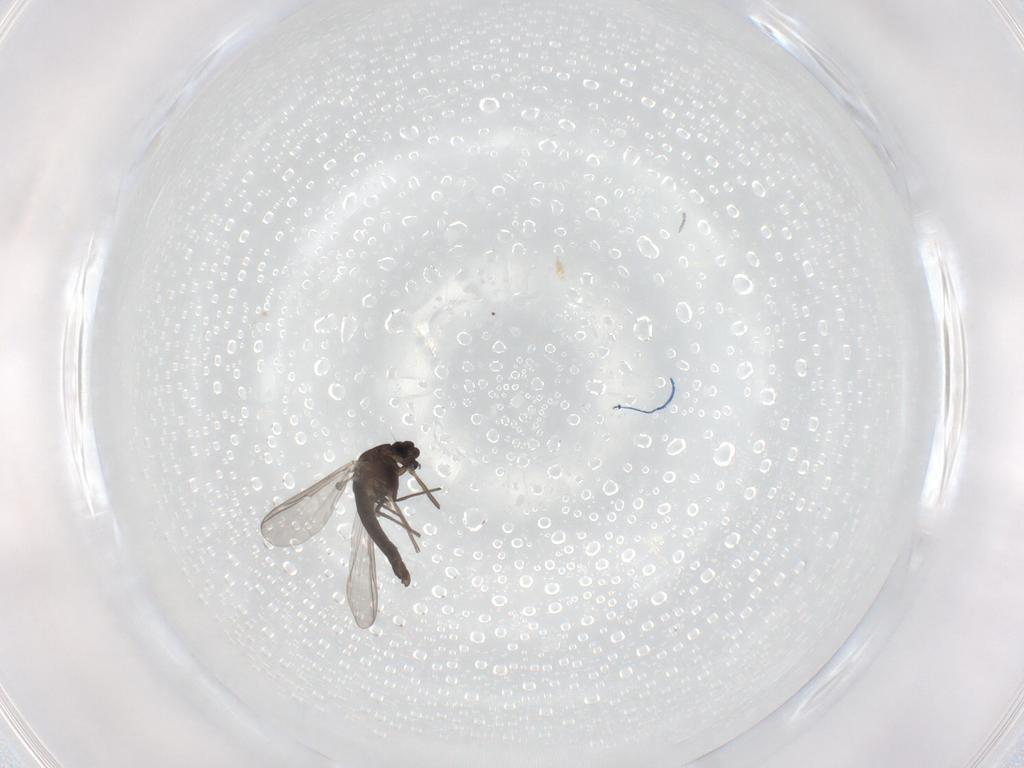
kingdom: Animalia
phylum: Arthropoda
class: Insecta
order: Diptera
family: Chironomidae
